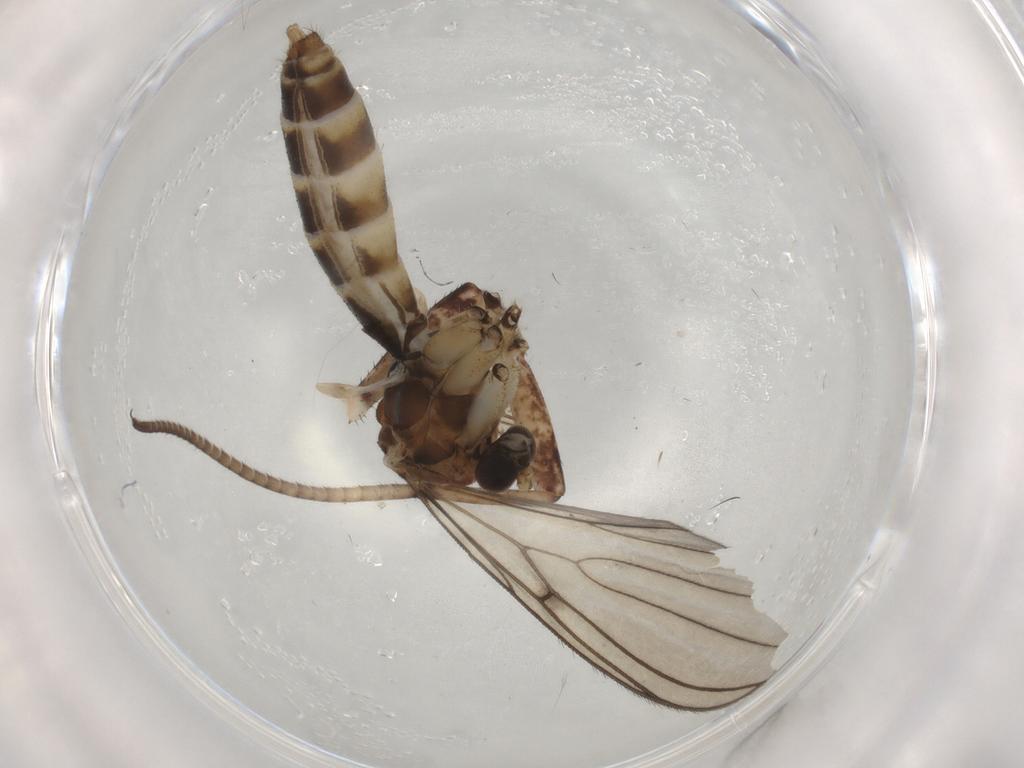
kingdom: Animalia
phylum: Arthropoda
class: Insecta
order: Diptera
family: Mycetophilidae
